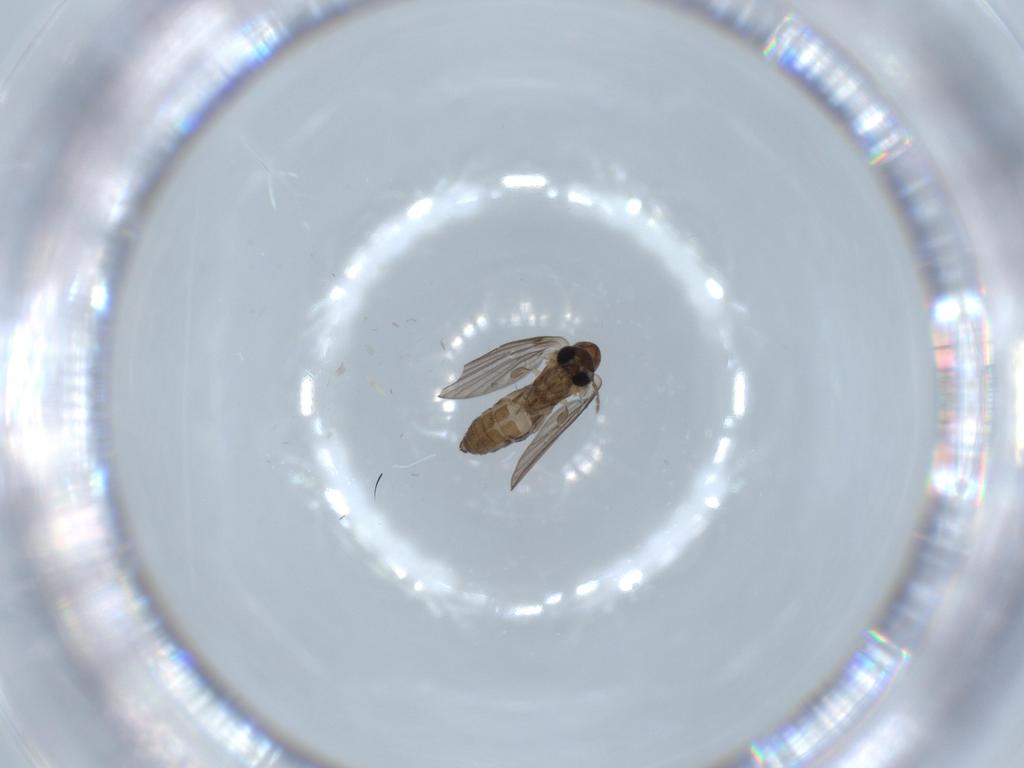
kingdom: Animalia
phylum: Arthropoda
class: Insecta
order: Diptera
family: Psychodidae
